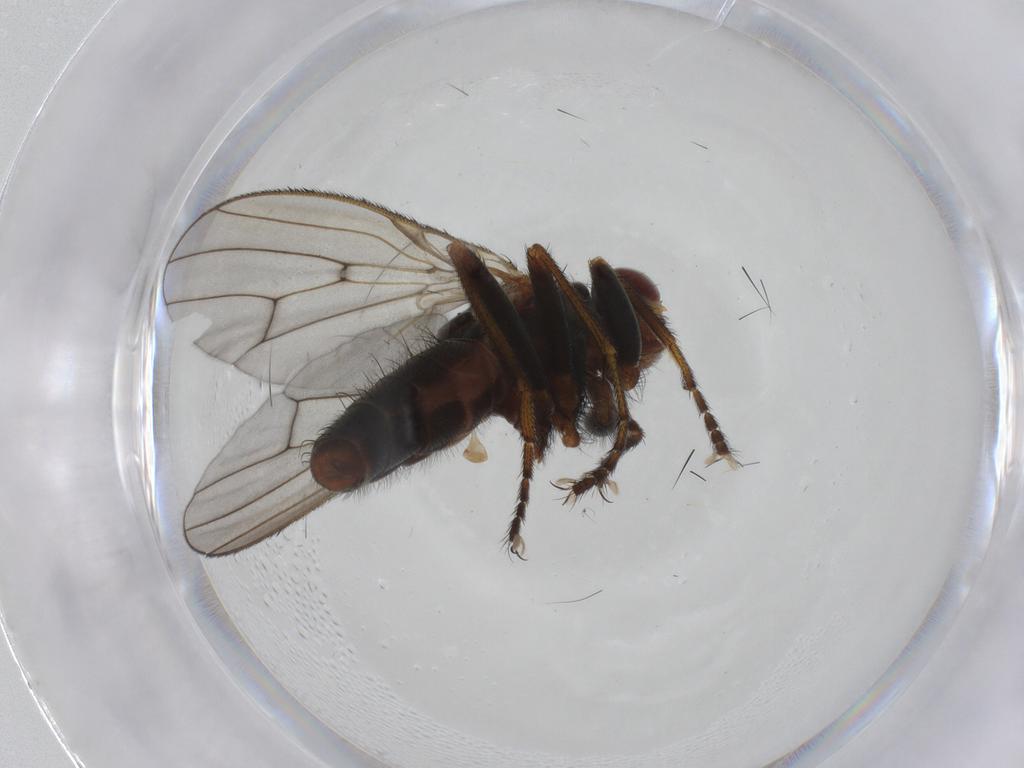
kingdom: Animalia
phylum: Arthropoda
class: Insecta
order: Diptera
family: Heleomyzidae
